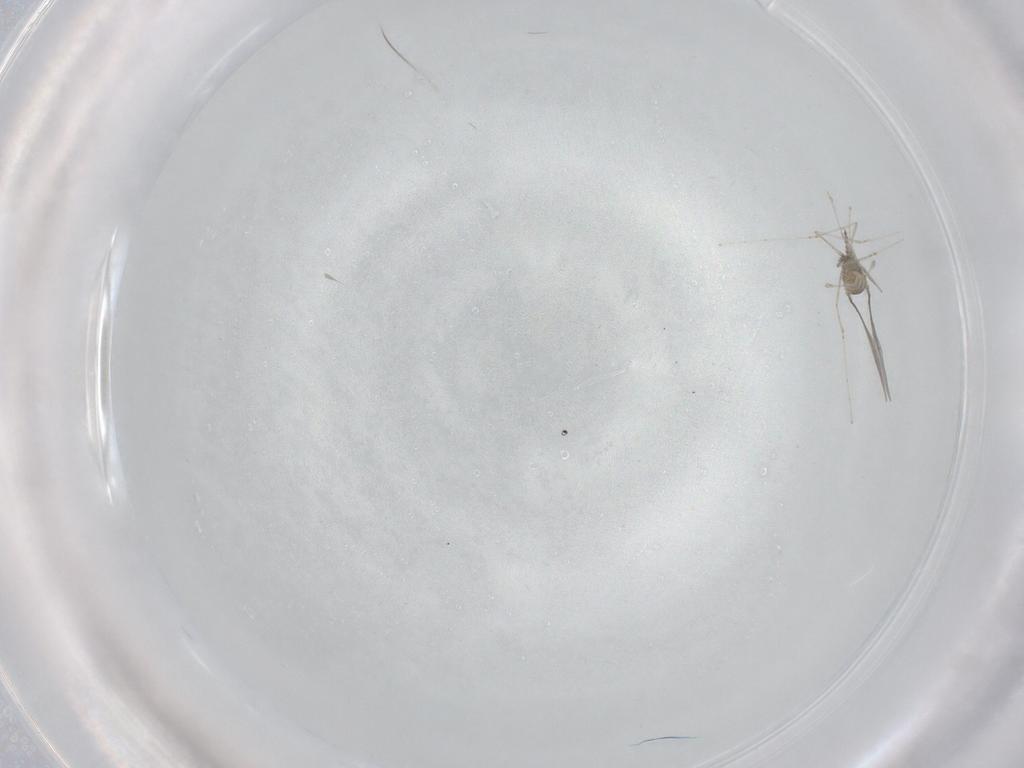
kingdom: Animalia
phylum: Arthropoda
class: Insecta
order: Diptera
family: Cecidomyiidae
